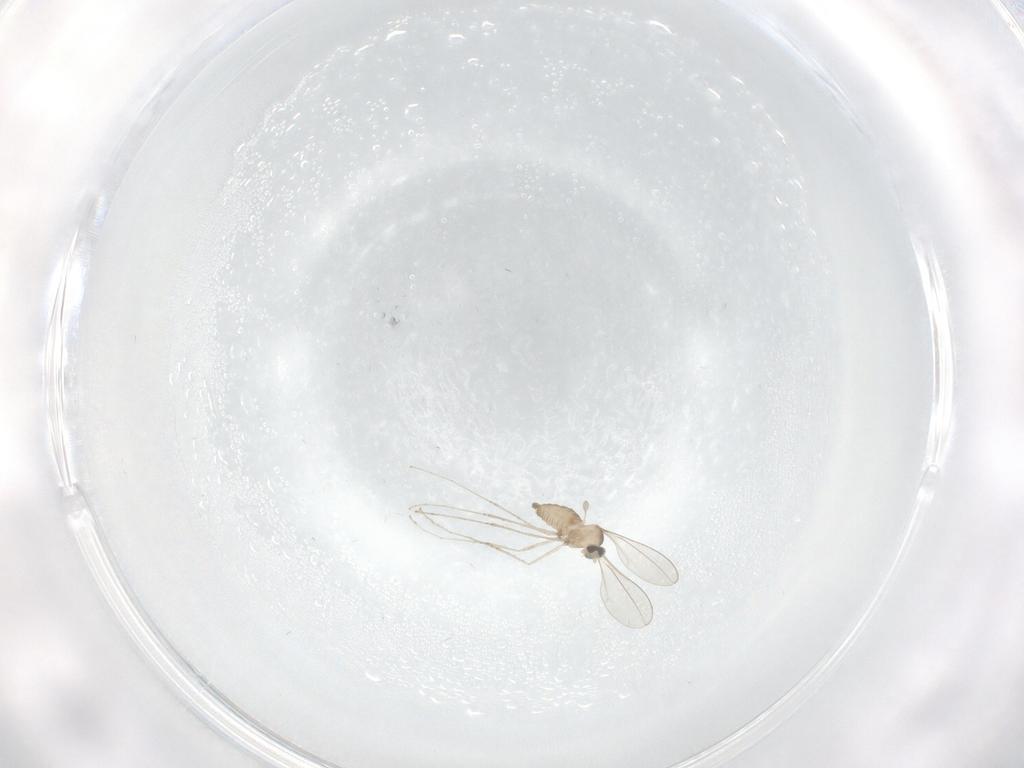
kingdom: Animalia
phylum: Arthropoda
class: Insecta
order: Diptera
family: Cecidomyiidae
